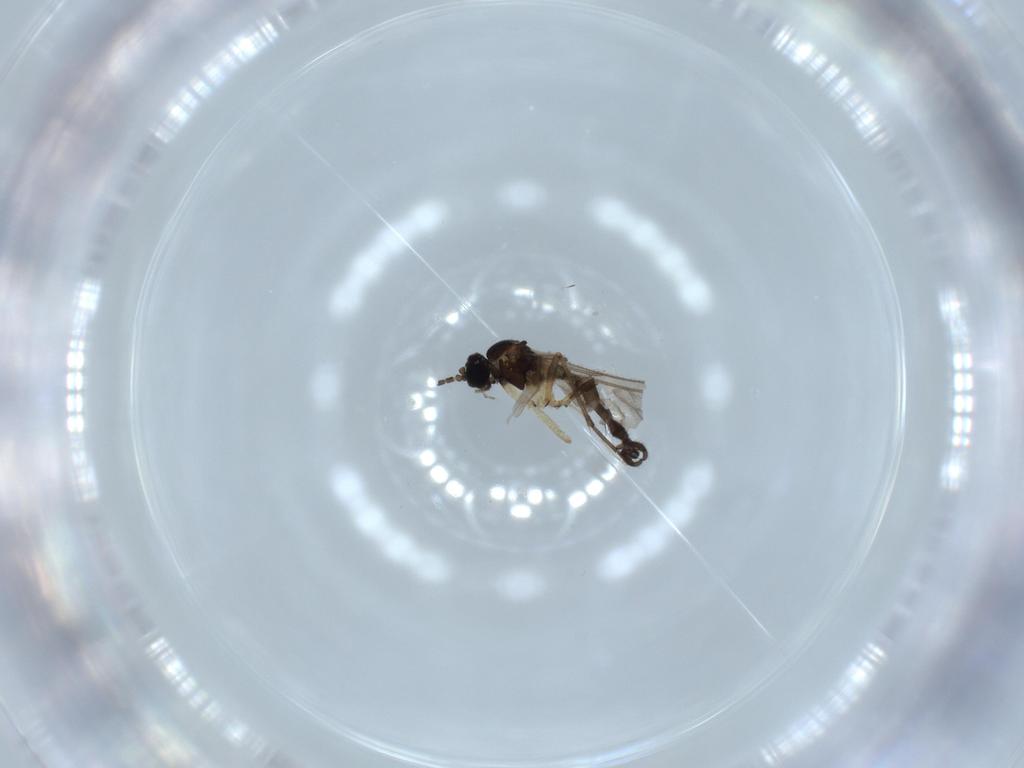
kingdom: Animalia
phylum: Arthropoda
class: Insecta
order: Diptera
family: Sciaridae
